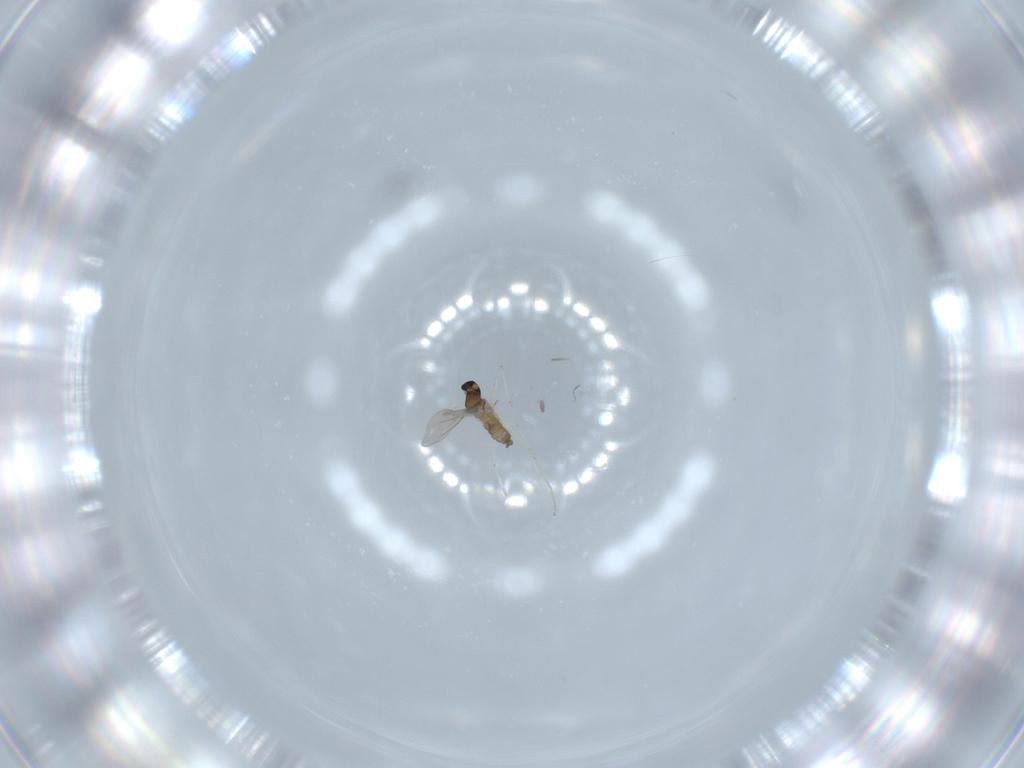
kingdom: Animalia
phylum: Arthropoda
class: Insecta
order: Diptera
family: Cecidomyiidae
